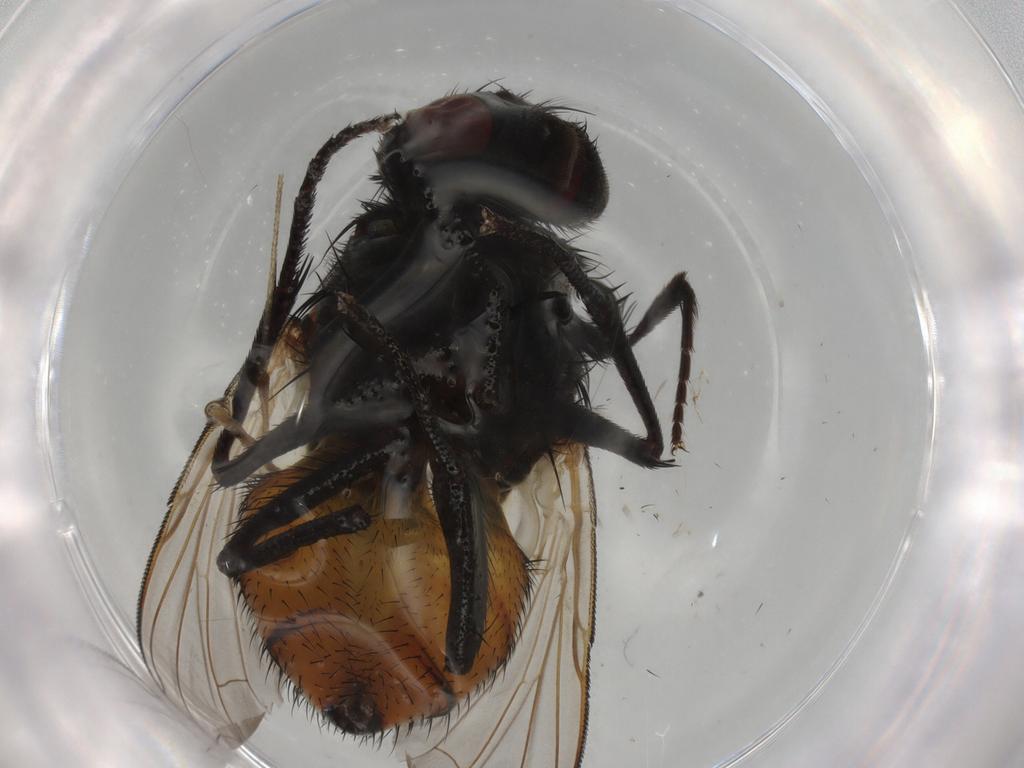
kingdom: Animalia
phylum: Arthropoda
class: Insecta
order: Diptera
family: Muscidae
